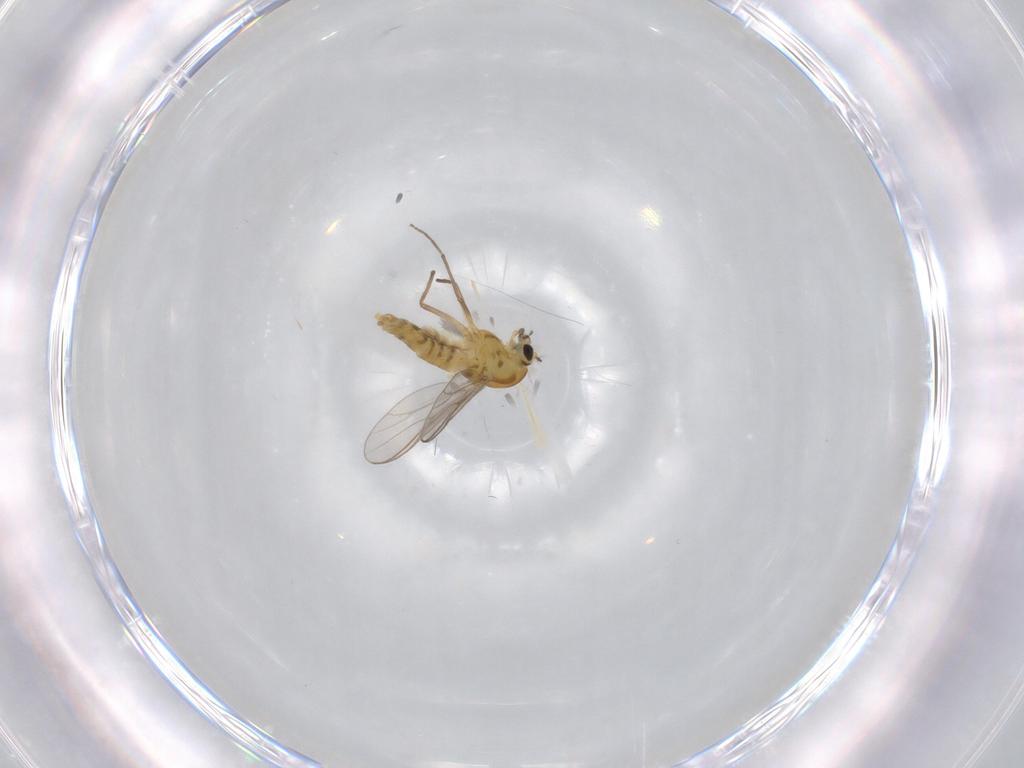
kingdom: Animalia
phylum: Arthropoda
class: Insecta
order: Diptera
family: Chironomidae
